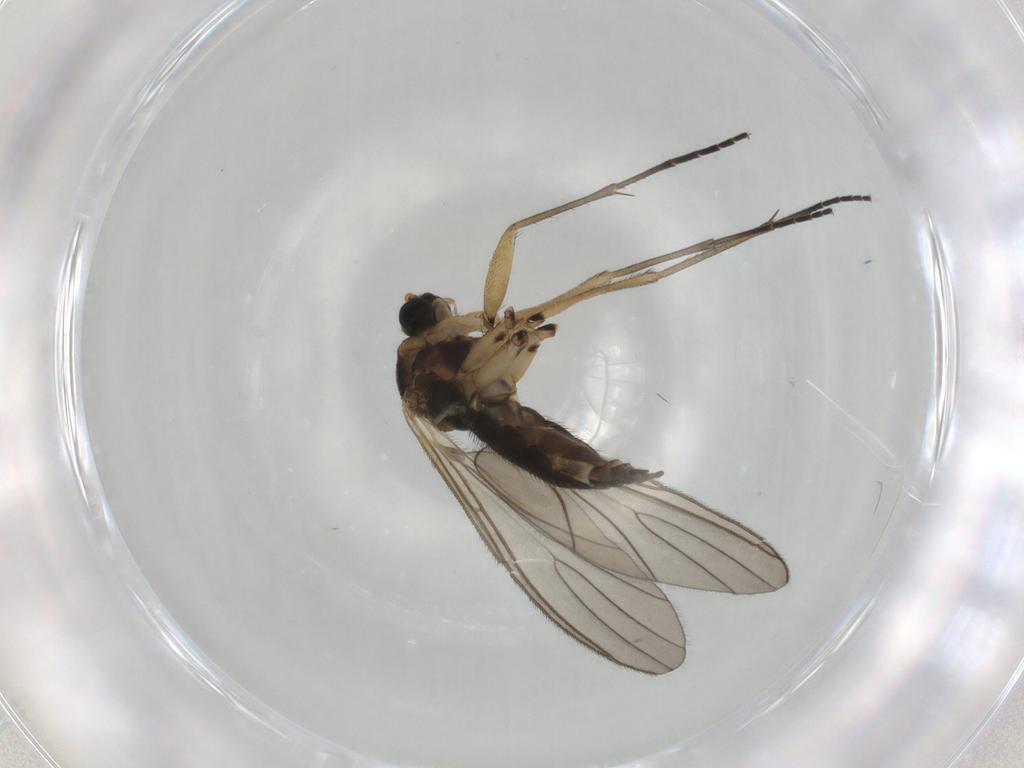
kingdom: Animalia
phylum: Arthropoda
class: Insecta
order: Diptera
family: Sciaridae
